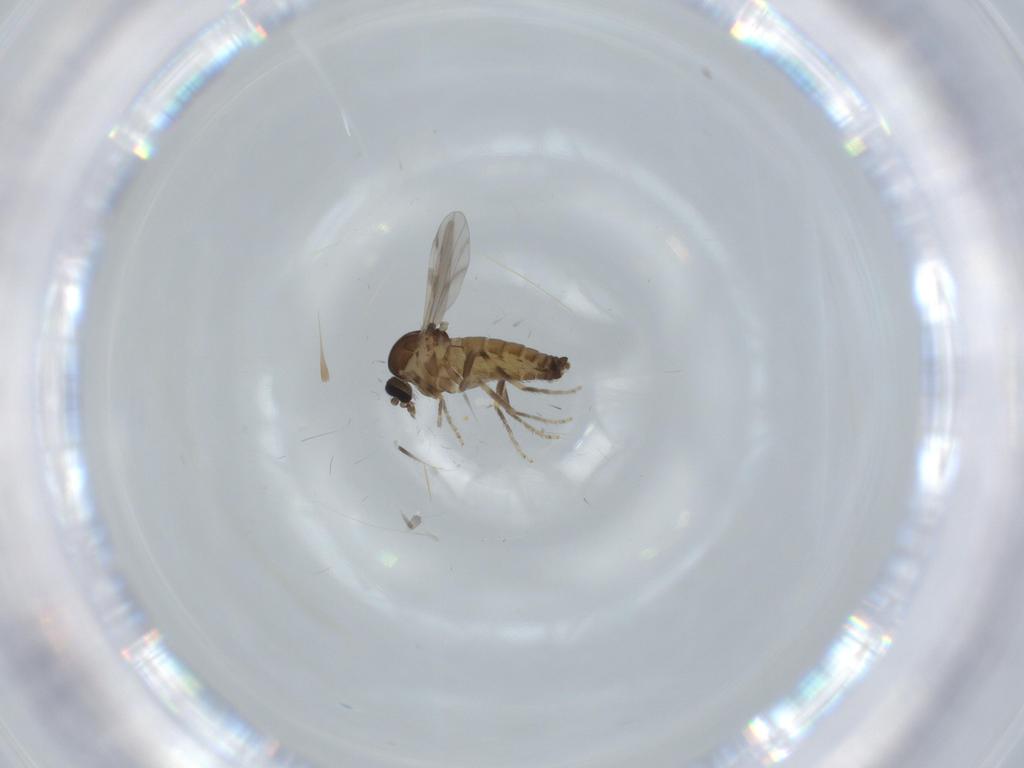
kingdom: Animalia
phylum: Arthropoda
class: Insecta
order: Diptera
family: Ceratopogonidae
